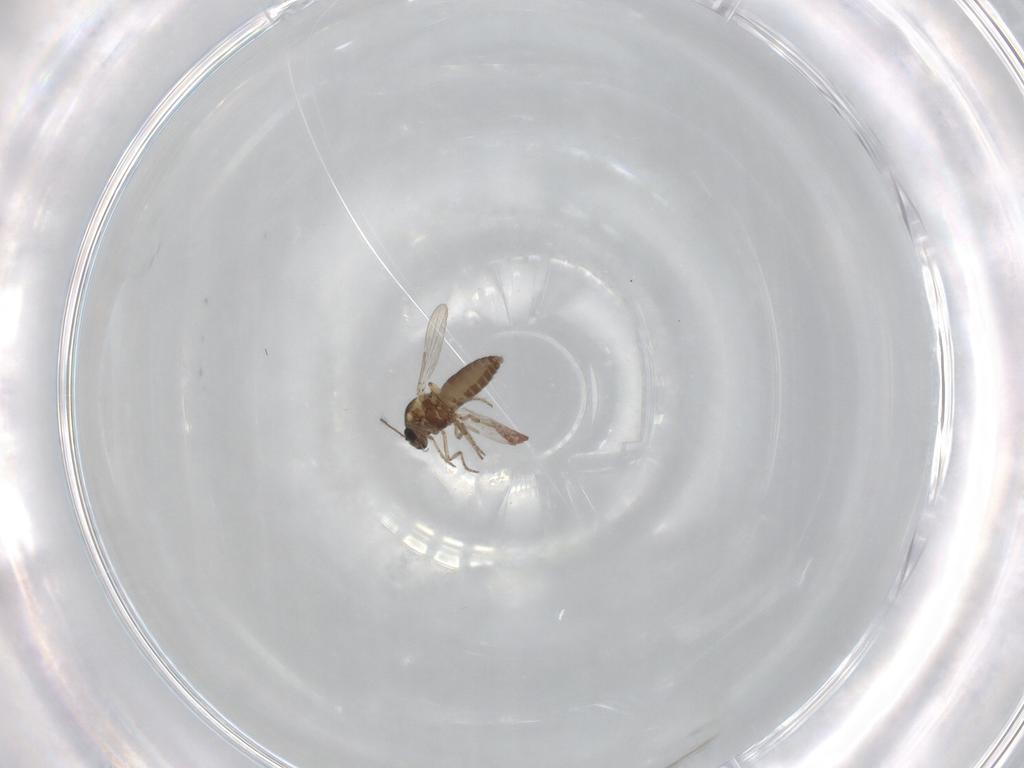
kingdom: Animalia
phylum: Arthropoda
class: Insecta
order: Diptera
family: Ceratopogonidae
